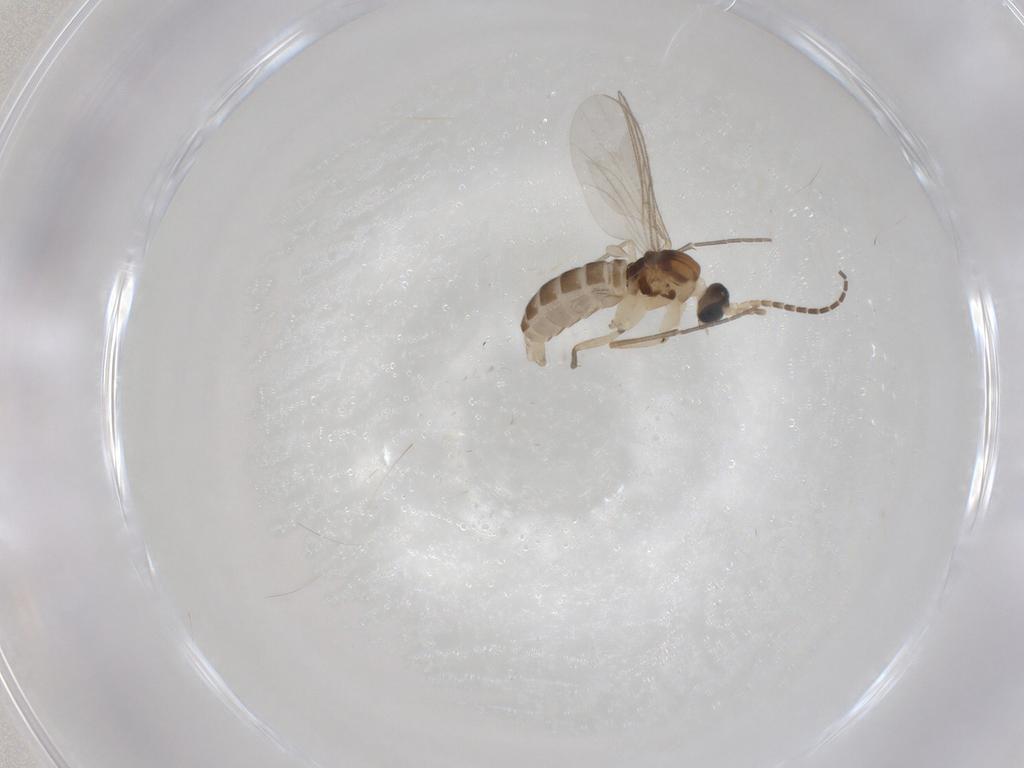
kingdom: Animalia
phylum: Arthropoda
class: Insecta
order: Diptera
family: Sciaridae
